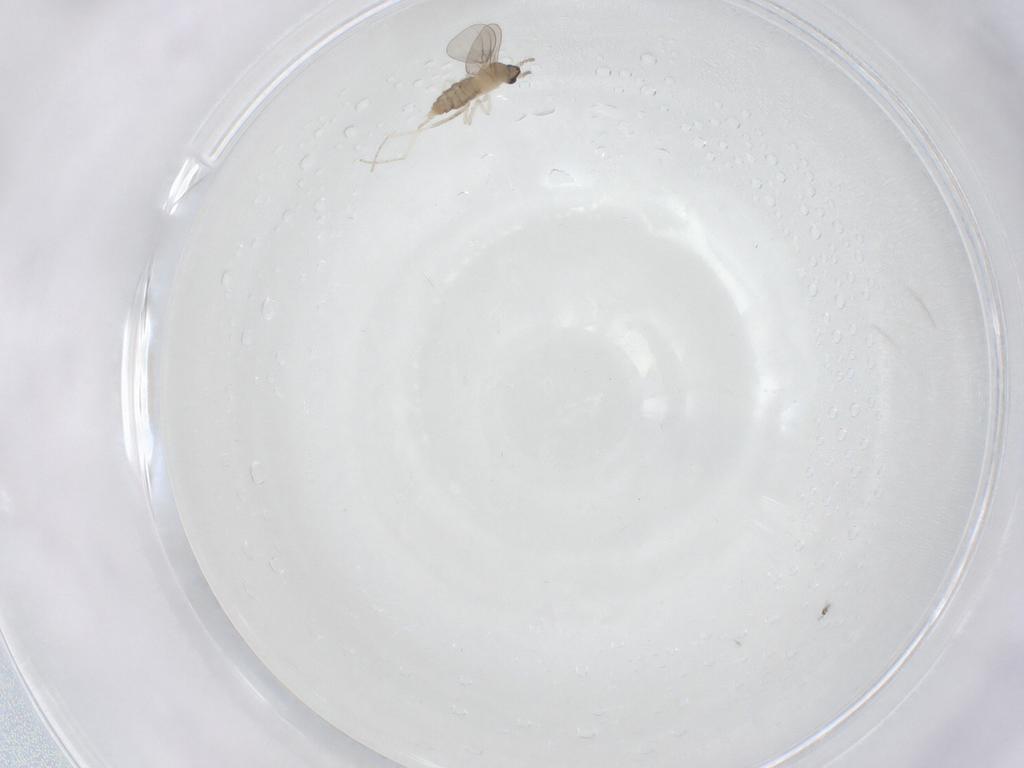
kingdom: Animalia
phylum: Arthropoda
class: Insecta
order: Diptera
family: Cecidomyiidae
